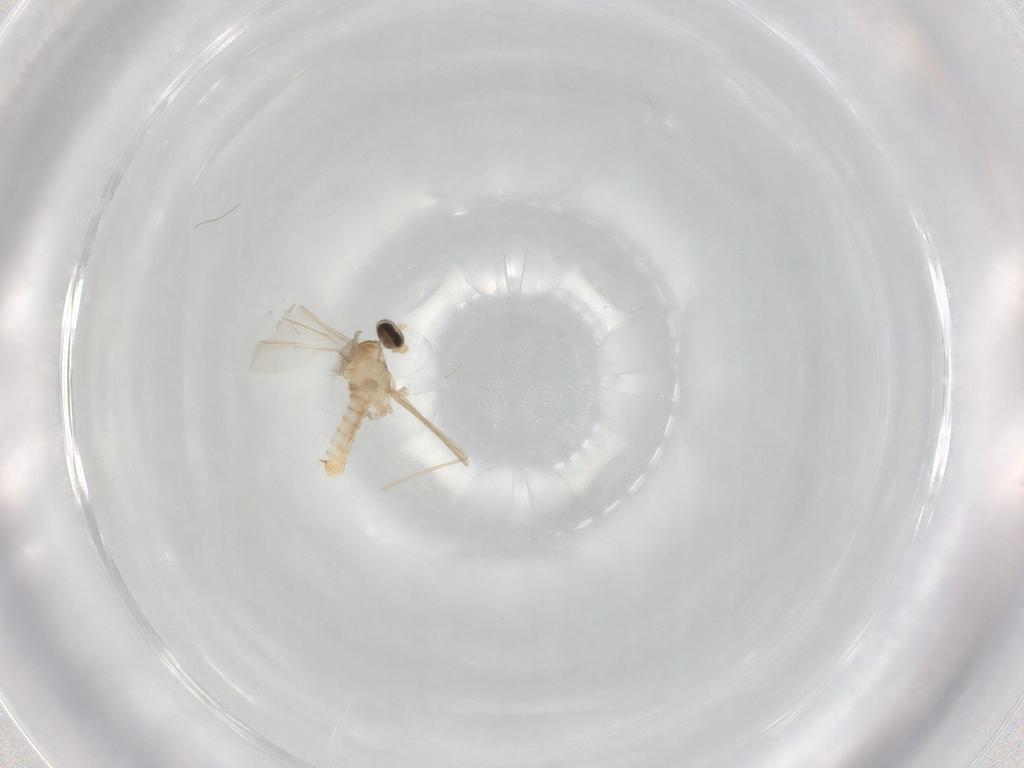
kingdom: Animalia
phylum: Arthropoda
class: Insecta
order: Diptera
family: Cecidomyiidae
